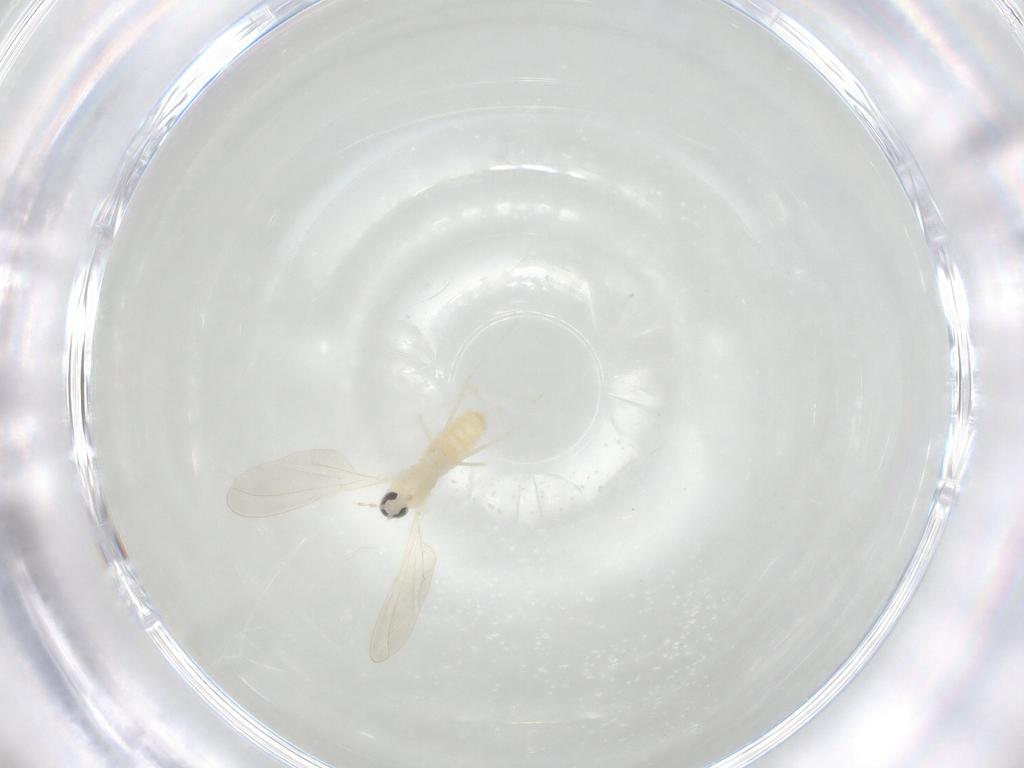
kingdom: Animalia
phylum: Arthropoda
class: Insecta
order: Diptera
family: Cecidomyiidae
